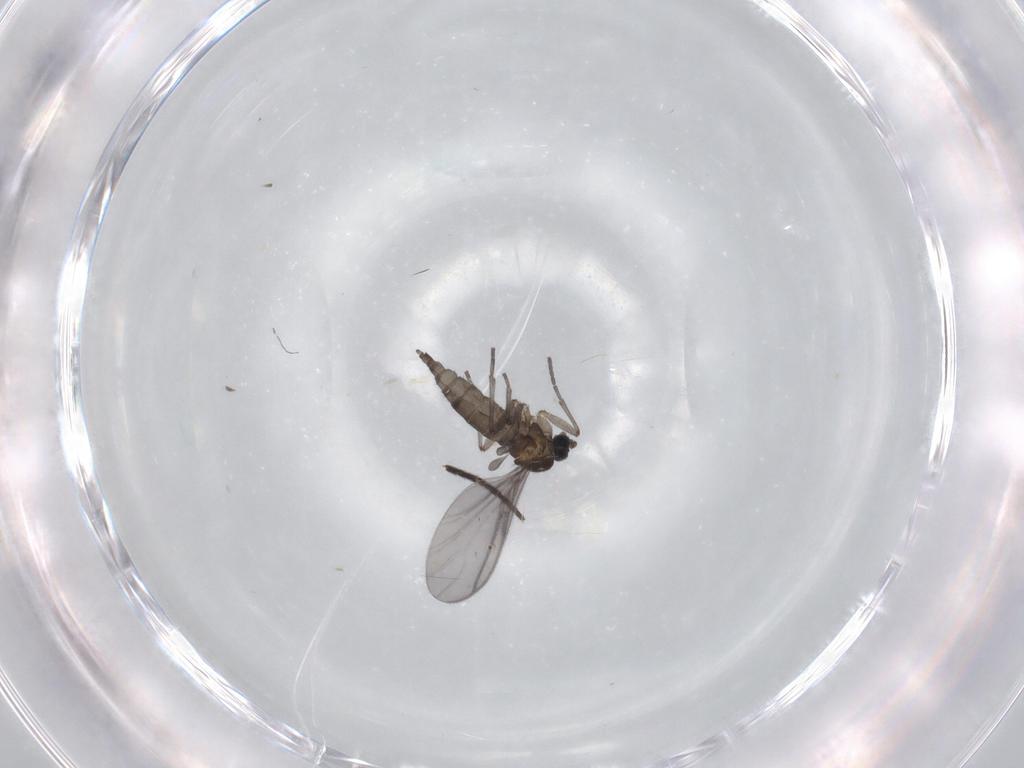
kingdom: Animalia
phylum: Arthropoda
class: Insecta
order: Diptera
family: Sciaridae
